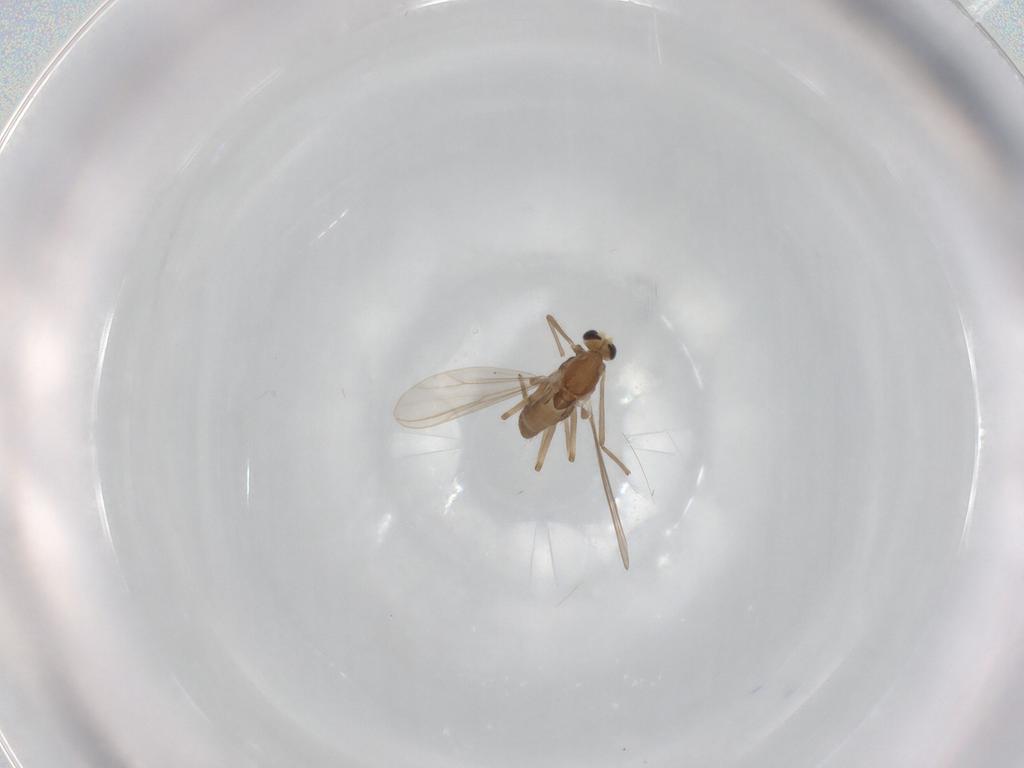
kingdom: Animalia
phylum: Arthropoda
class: Insecta
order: Diptera
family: Chironomidae
